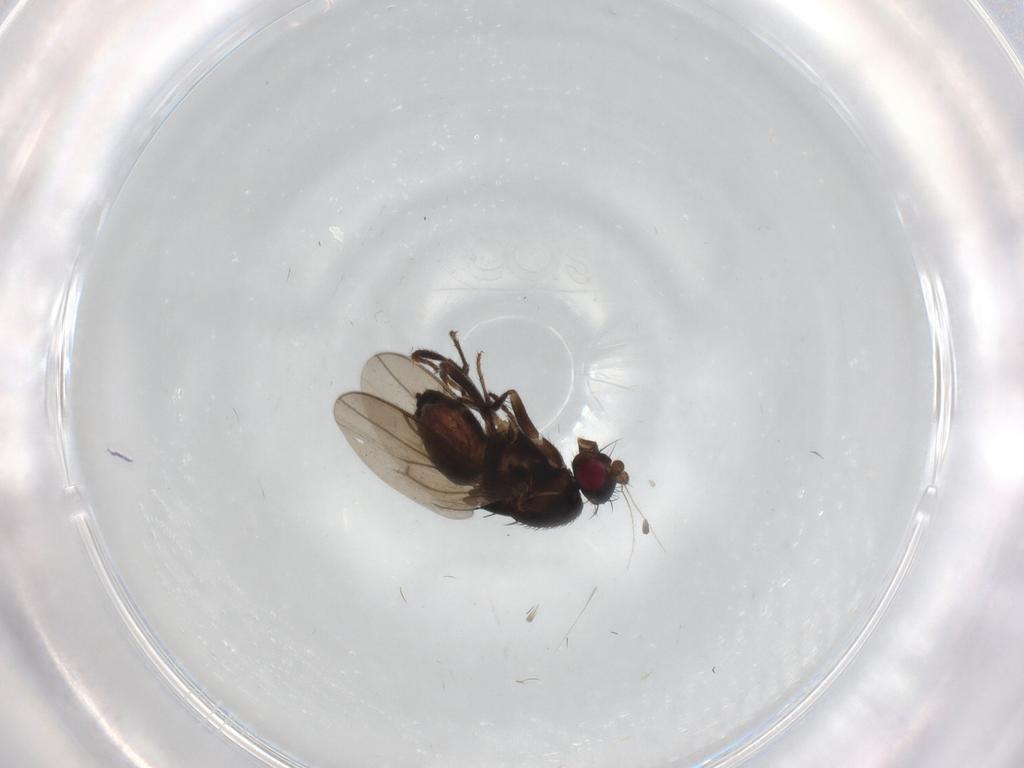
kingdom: Animalia
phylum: Arthropoda
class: Insecta
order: Diptera
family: Sphaeroceridae
